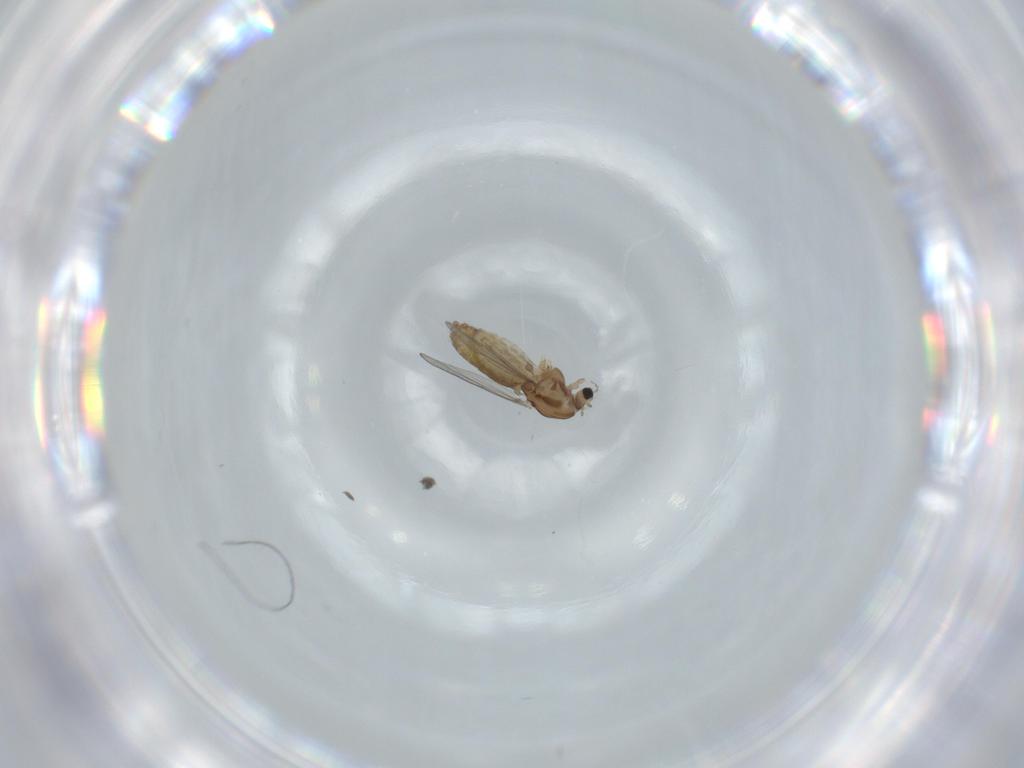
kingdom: Animalia
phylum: Arthropoda
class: Insecta
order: Diptera
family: Chironomidae
